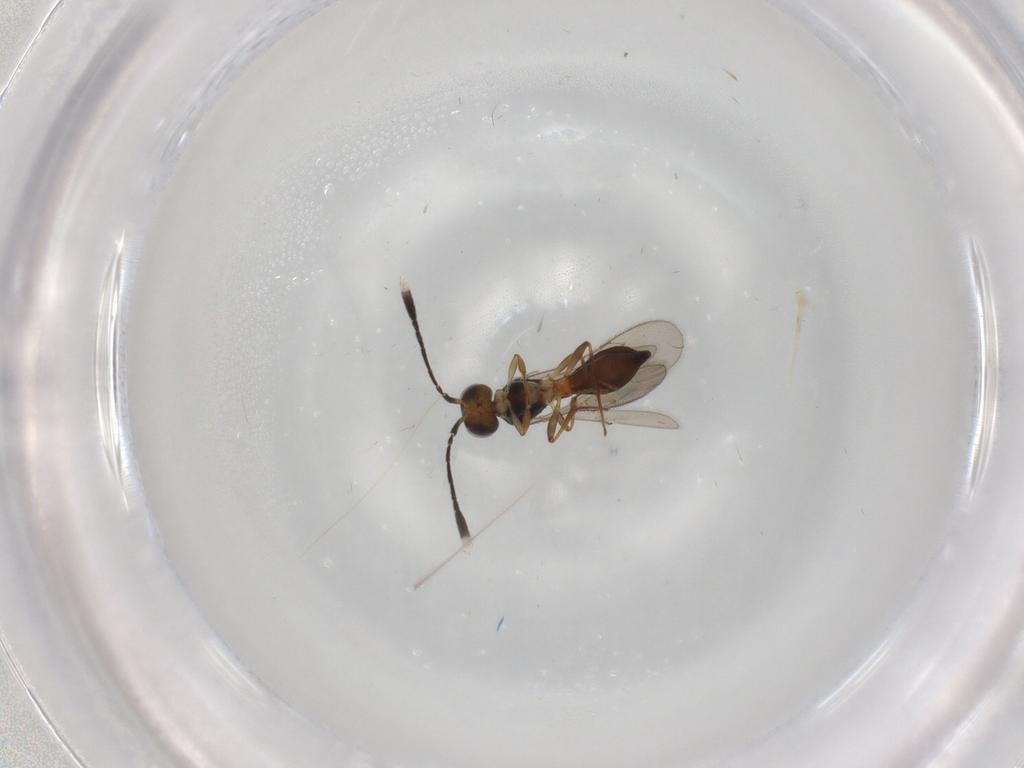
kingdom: Animalia
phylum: Arthropoda
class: Insecta
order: Hymenoptera
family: Scelionidae
